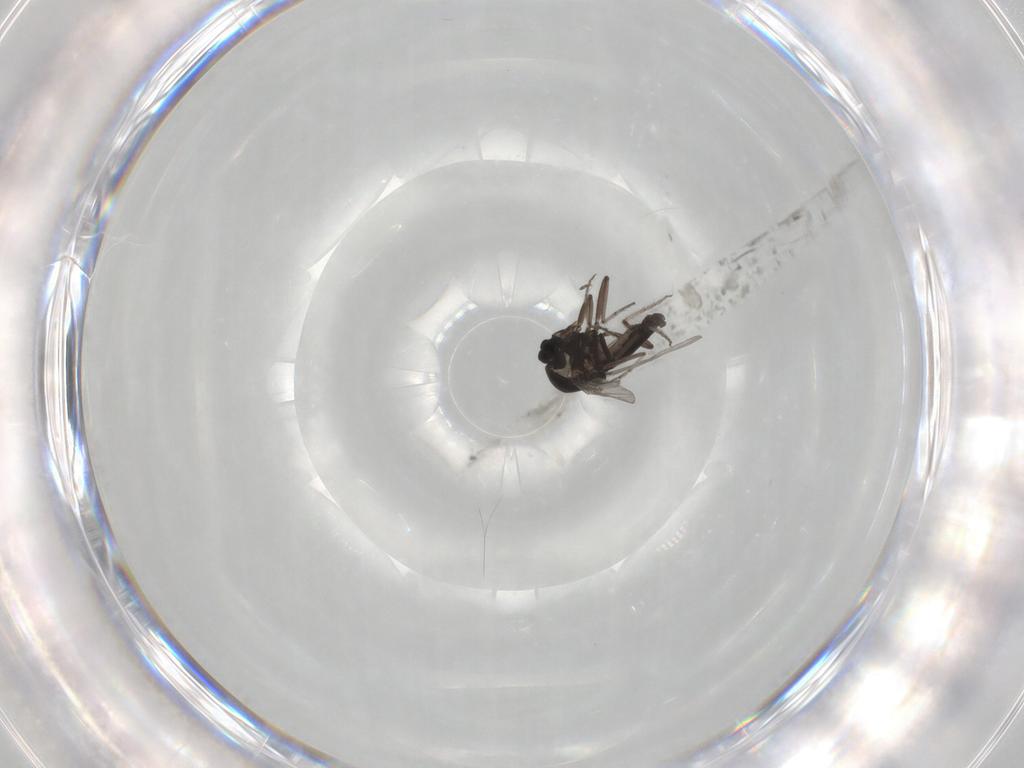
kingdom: Animalia
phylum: Arthropoda
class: Insecta
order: Diptera
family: Ceratopogonidae
